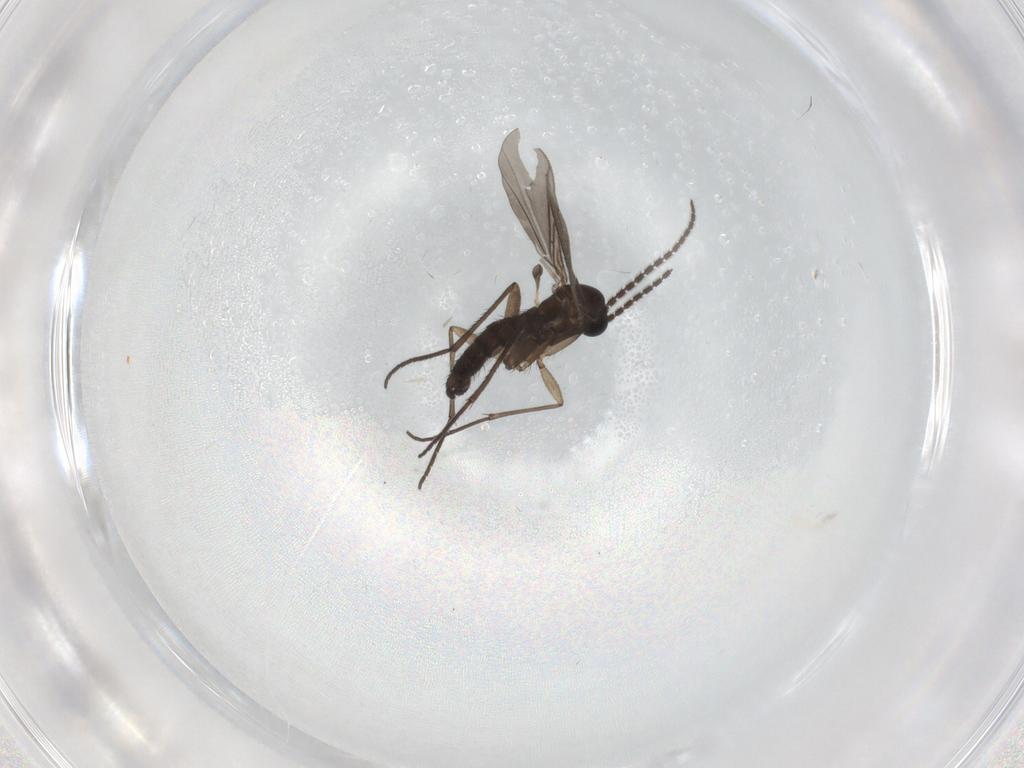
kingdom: Animalia
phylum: Arthropoda
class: Insecta
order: Diptera
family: Sciaridae
